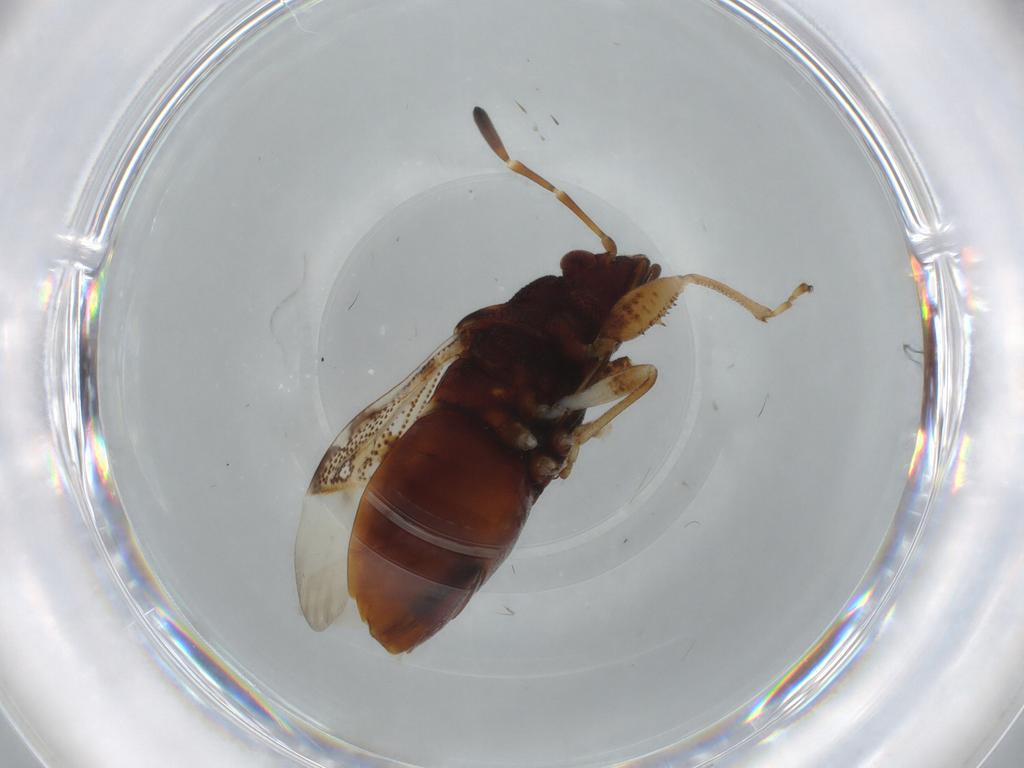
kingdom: Animalia
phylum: Arthropoda
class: Insecta
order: Hemiptera
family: Rhyparochromidae
